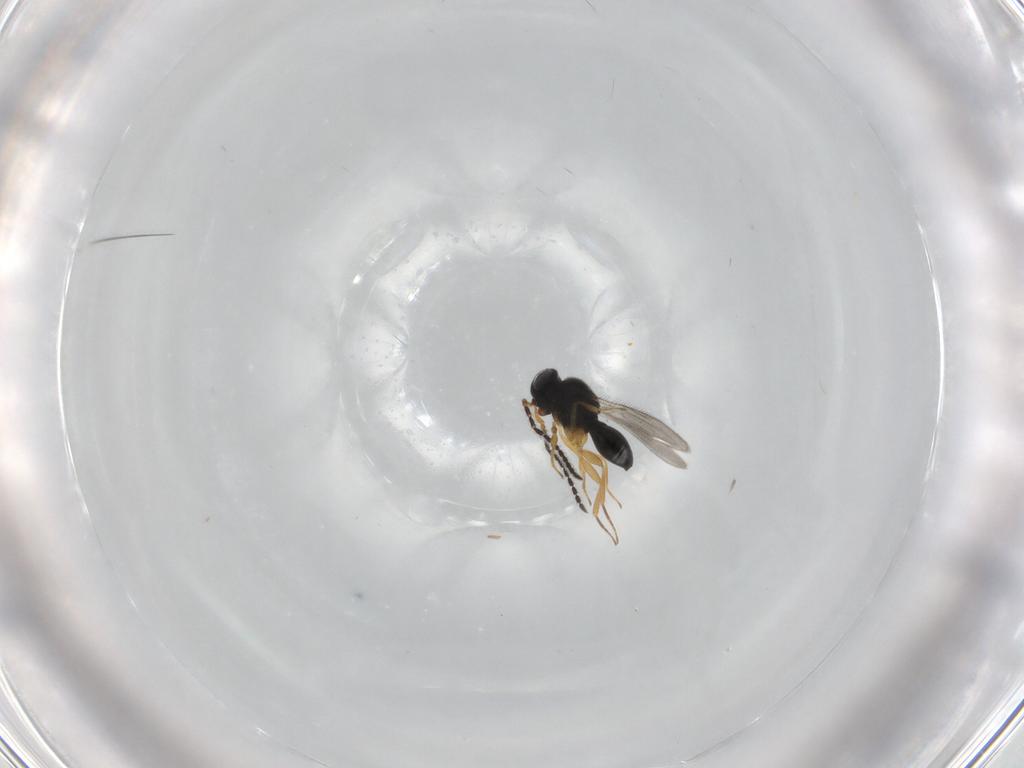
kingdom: Animalia
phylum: Arthropoda
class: Insecta
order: Hymenoptera
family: Scelionidae
